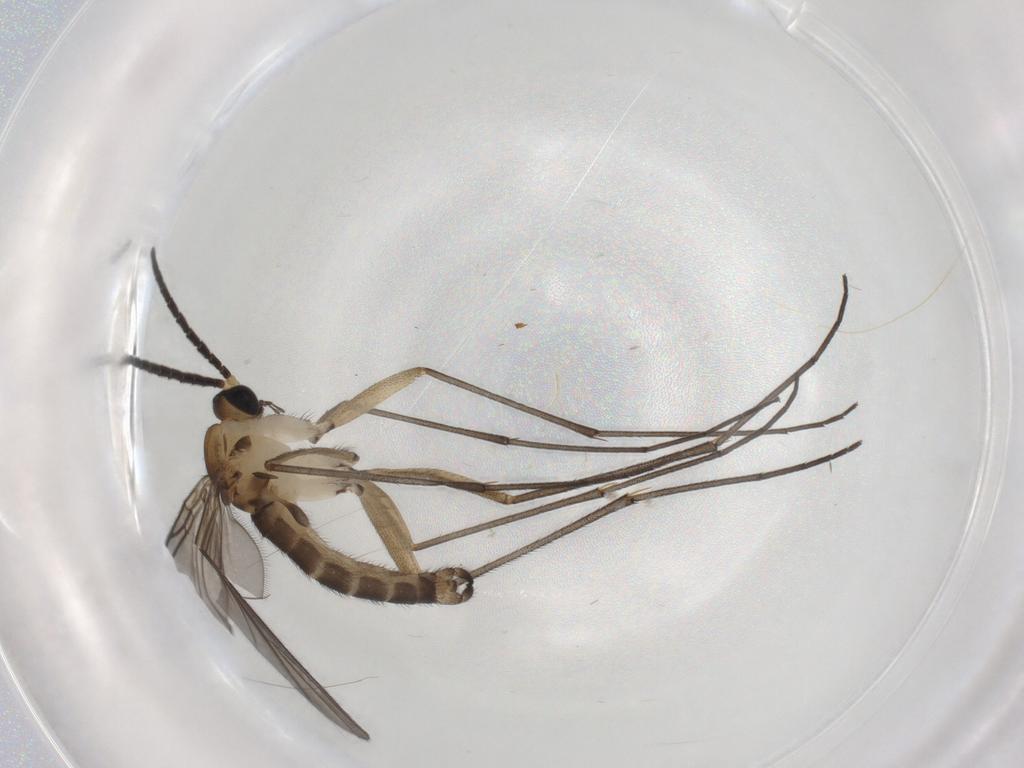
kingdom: Animalia
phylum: Arthropoda
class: Insecta
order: Diptera
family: Sciaridae
